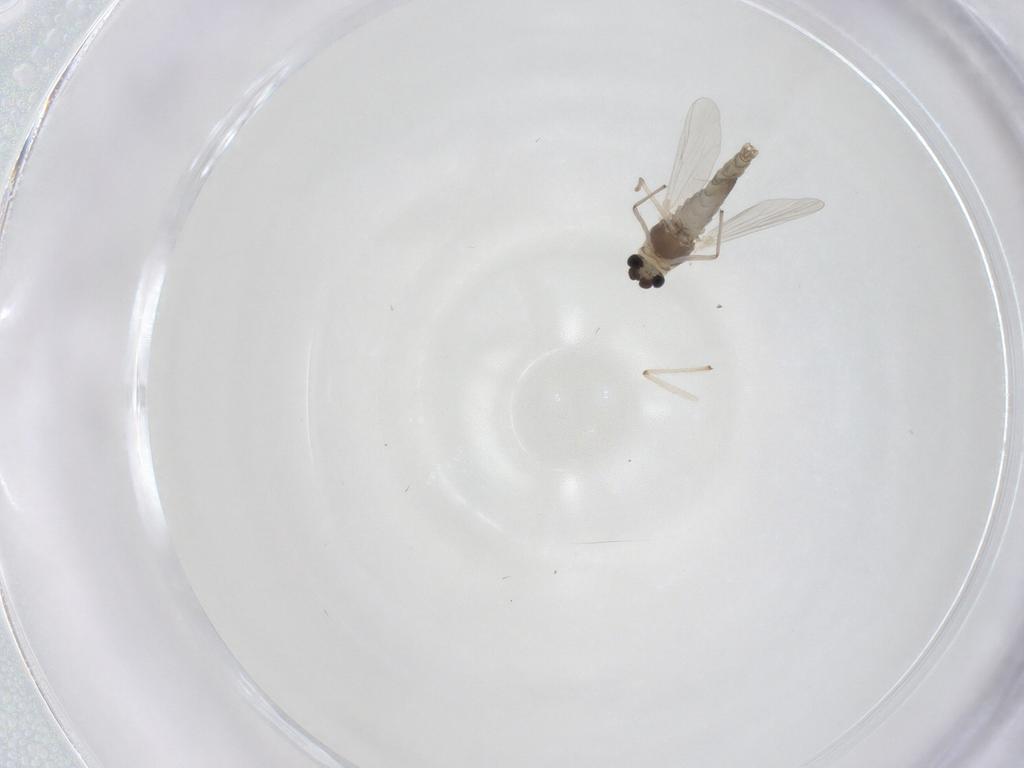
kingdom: Animalia
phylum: Arthropoda
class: Insecta
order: Diptera
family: Chironomidae
